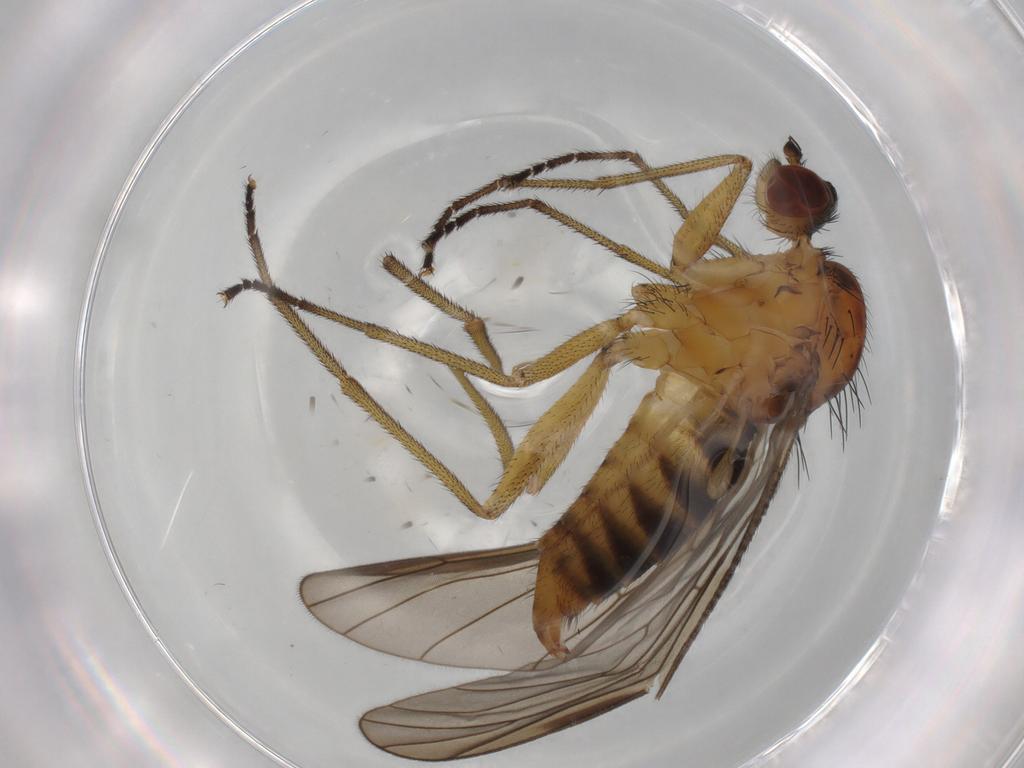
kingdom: Animalia
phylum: Arthropoda
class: Insecta
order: Diptera
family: Brachystomatidae
